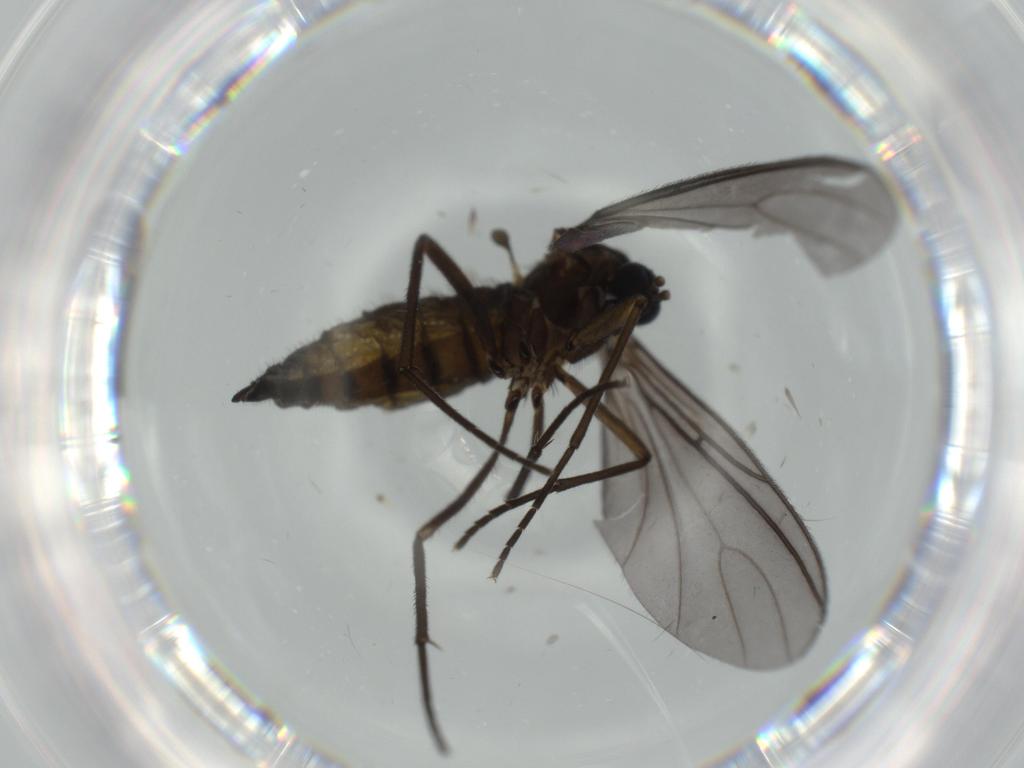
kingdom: Animalia
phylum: Arthropoda
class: Insecta
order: Diptera
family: Sciaridae
